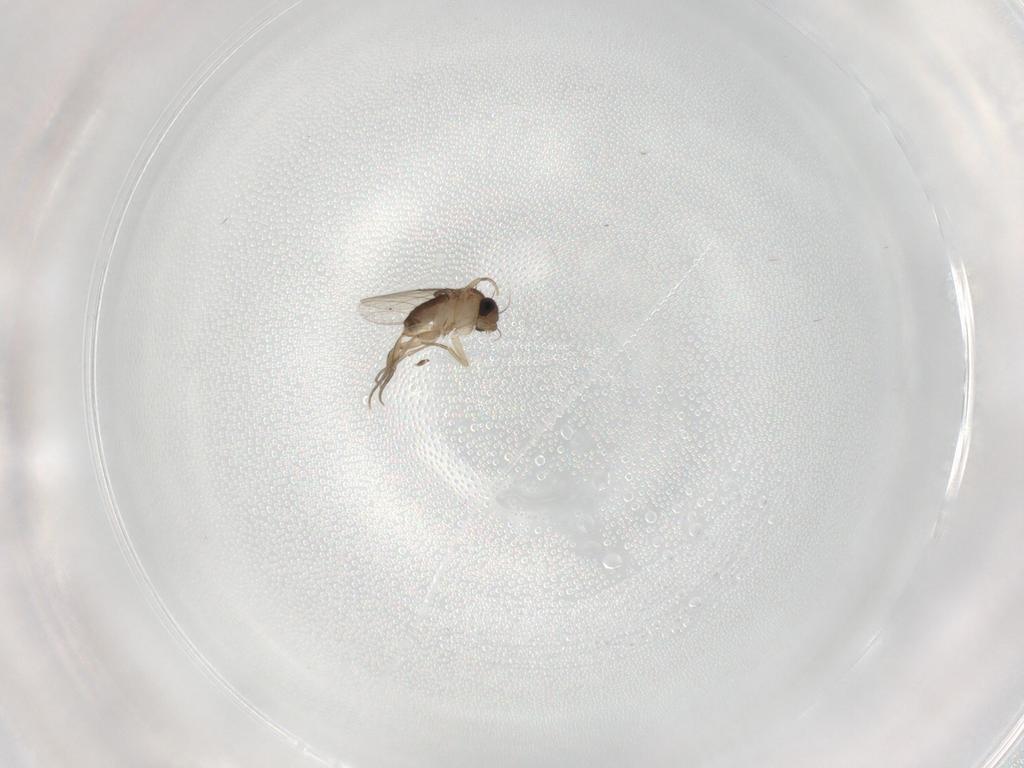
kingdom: Animalia
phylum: Arthropoda
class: Insecta
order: Diptera
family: Phoridae
